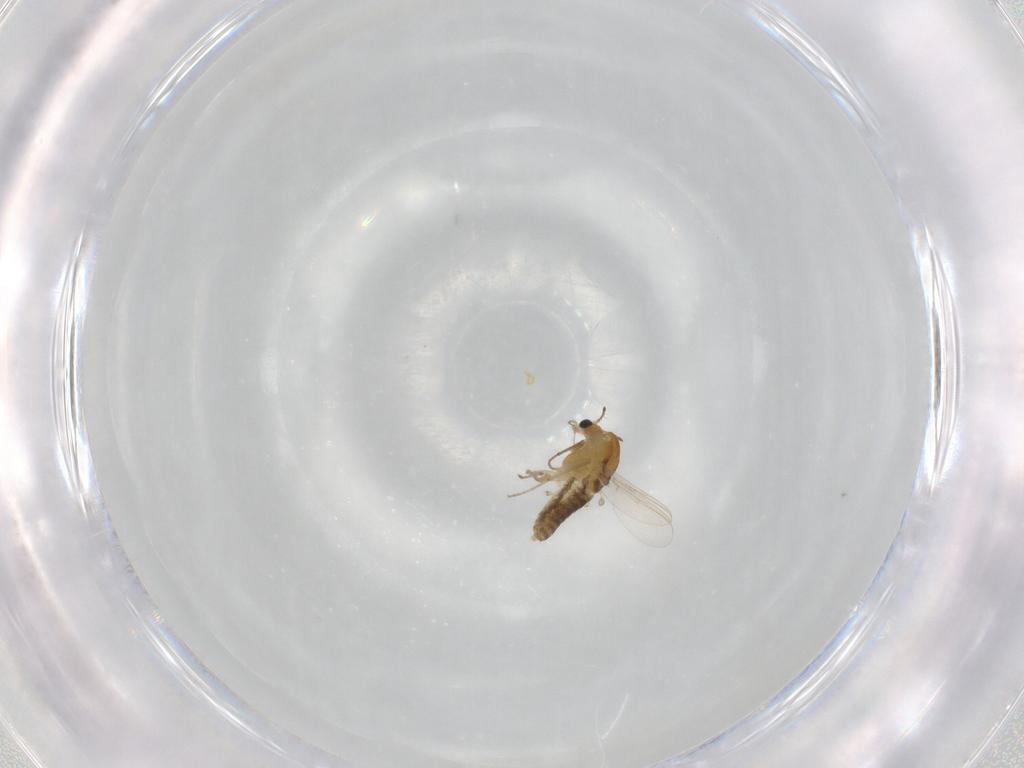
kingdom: Animalia
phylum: Arthropoda
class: Insecta
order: Diptera
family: Chironomidae
